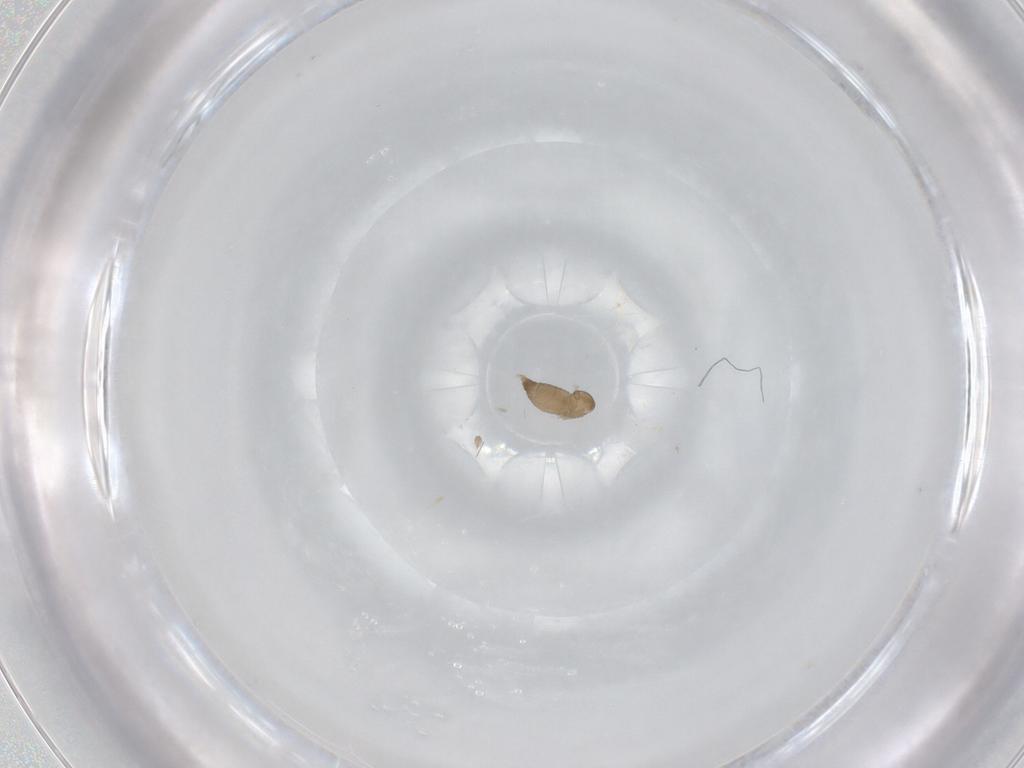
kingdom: Animalia
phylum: Arthropoda
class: Insecta
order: Diptera
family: Cecidomyiidae
